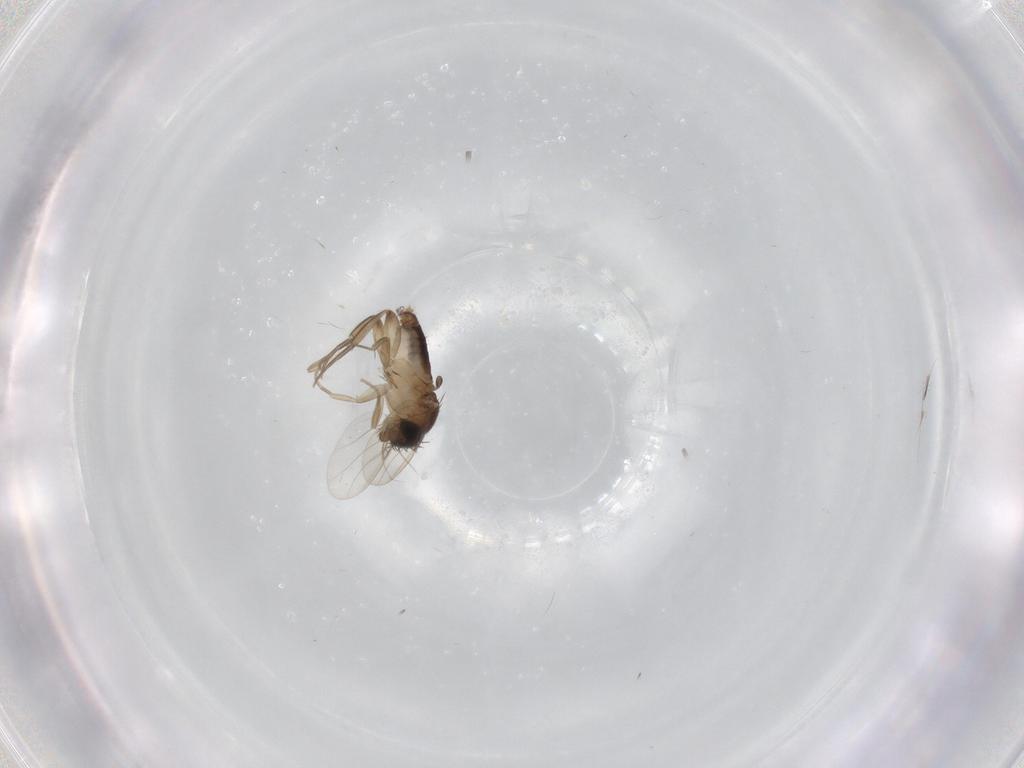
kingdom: Animalia
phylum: Arthropoda
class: Insecta
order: Diptera
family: Phoridae
